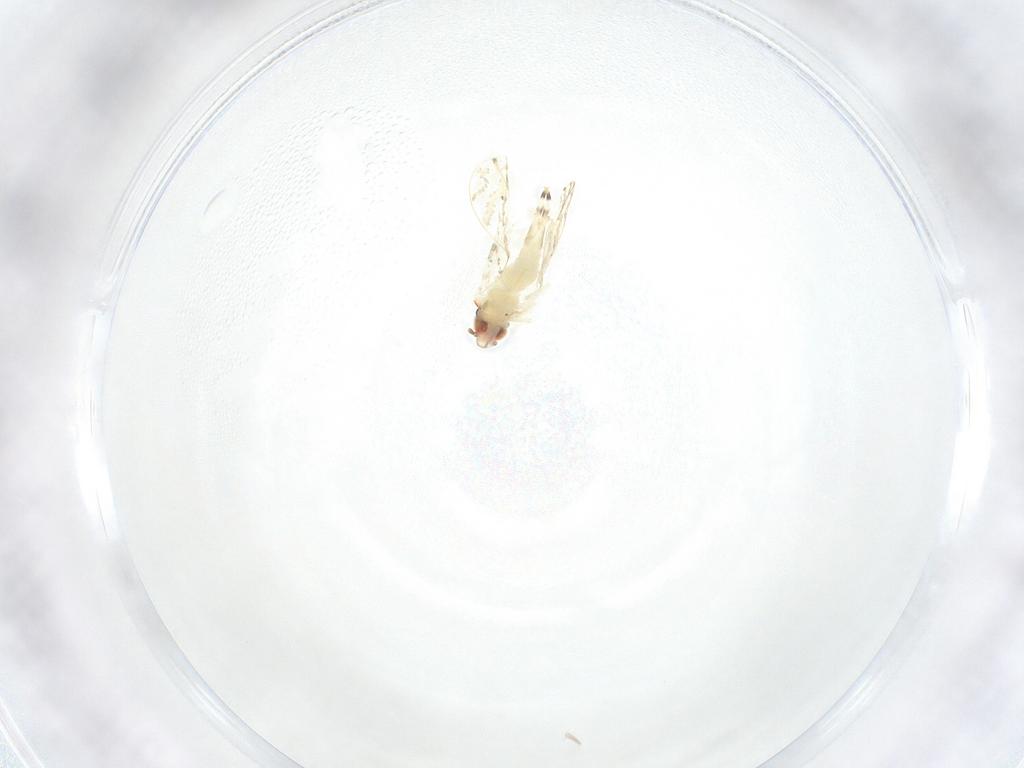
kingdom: Animalia
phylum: Arthropoda
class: Insecta
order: Hemiptera
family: Aleyrodidae
